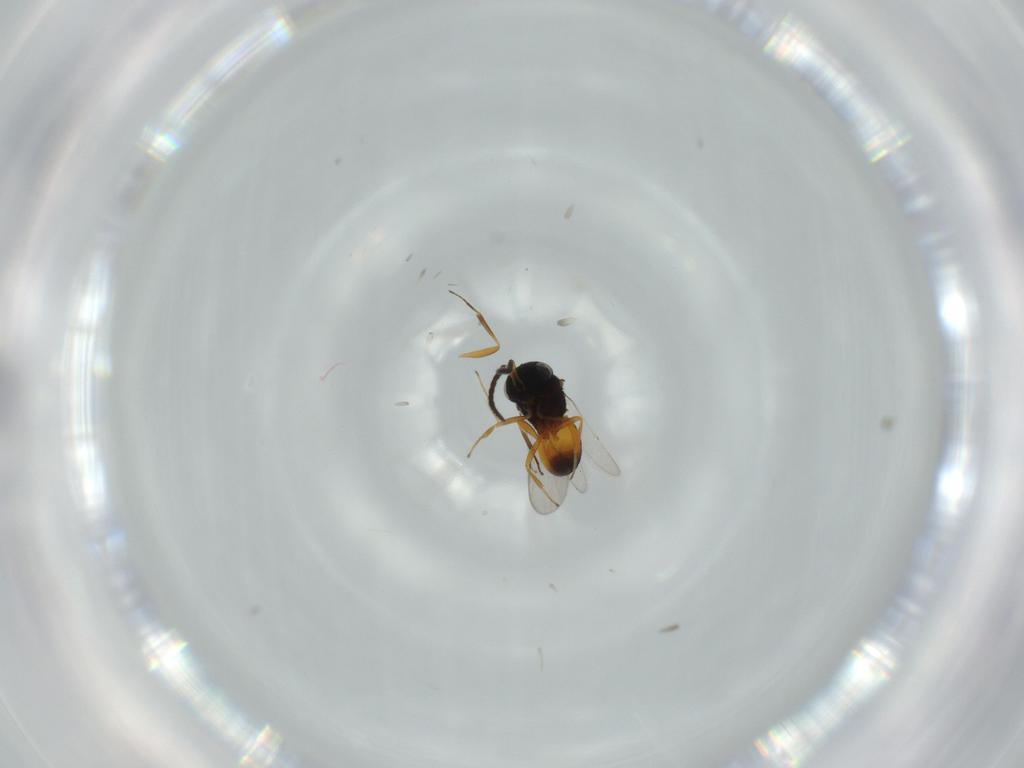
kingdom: Animalia
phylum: Arthropoda
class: Insecta
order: Hymenoptera
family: Scelionidae
